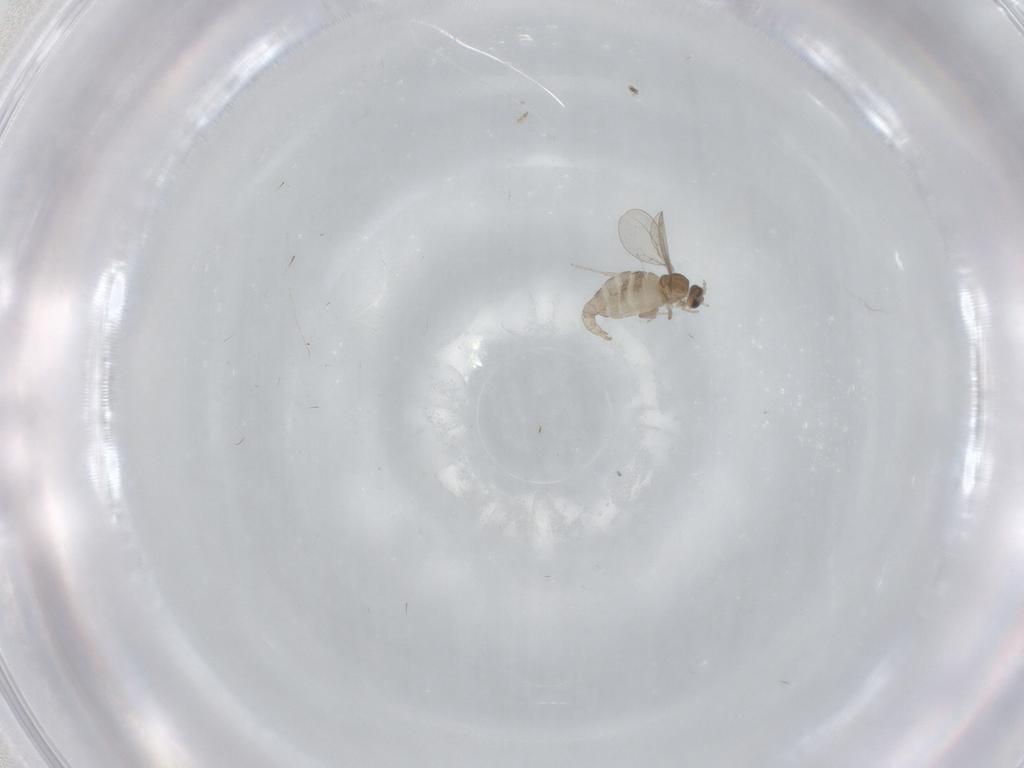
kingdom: Animalia
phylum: Arthropoda
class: Insecta
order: Diptera
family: Cecidomyiidae
